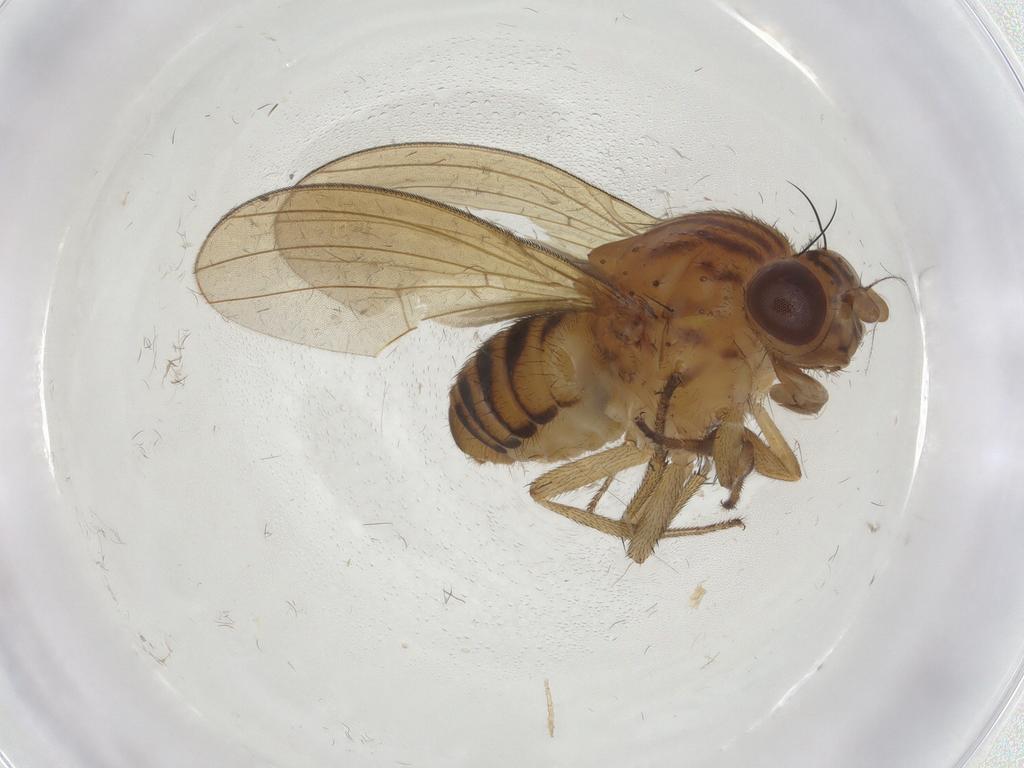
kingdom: Animalia
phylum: Arthropoda
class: Insecta
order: Diptera
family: Lauxaniidae
